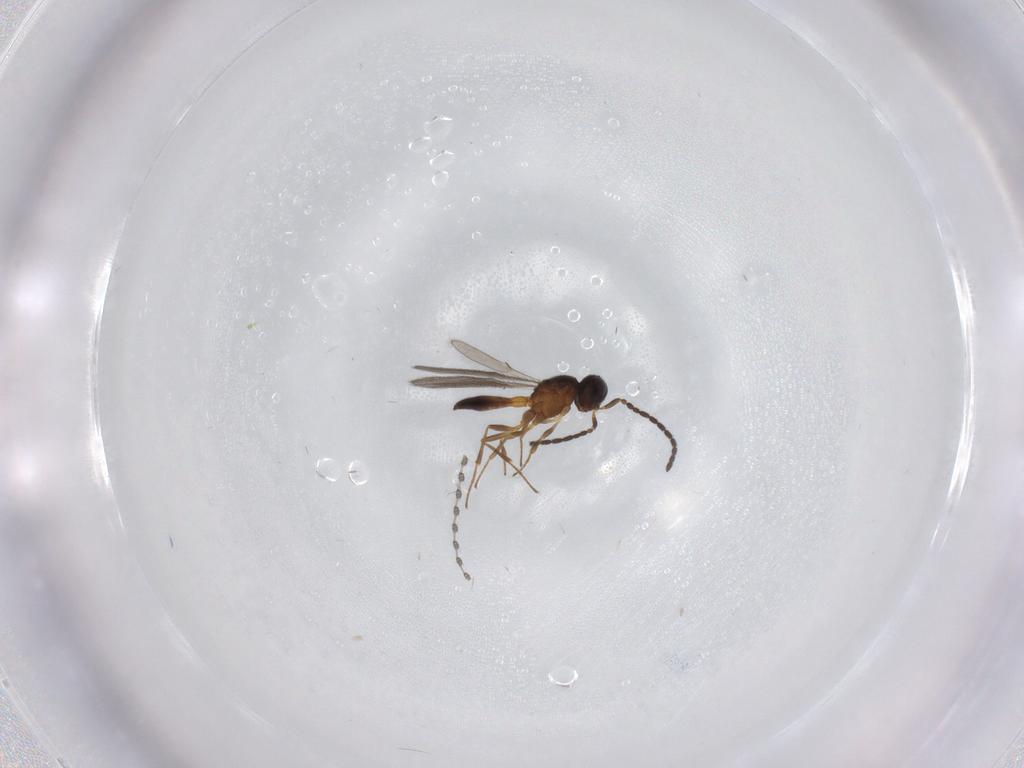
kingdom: Animalia
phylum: Arthropoda
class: Insecta
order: Hymenoptera
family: Scelionidae
